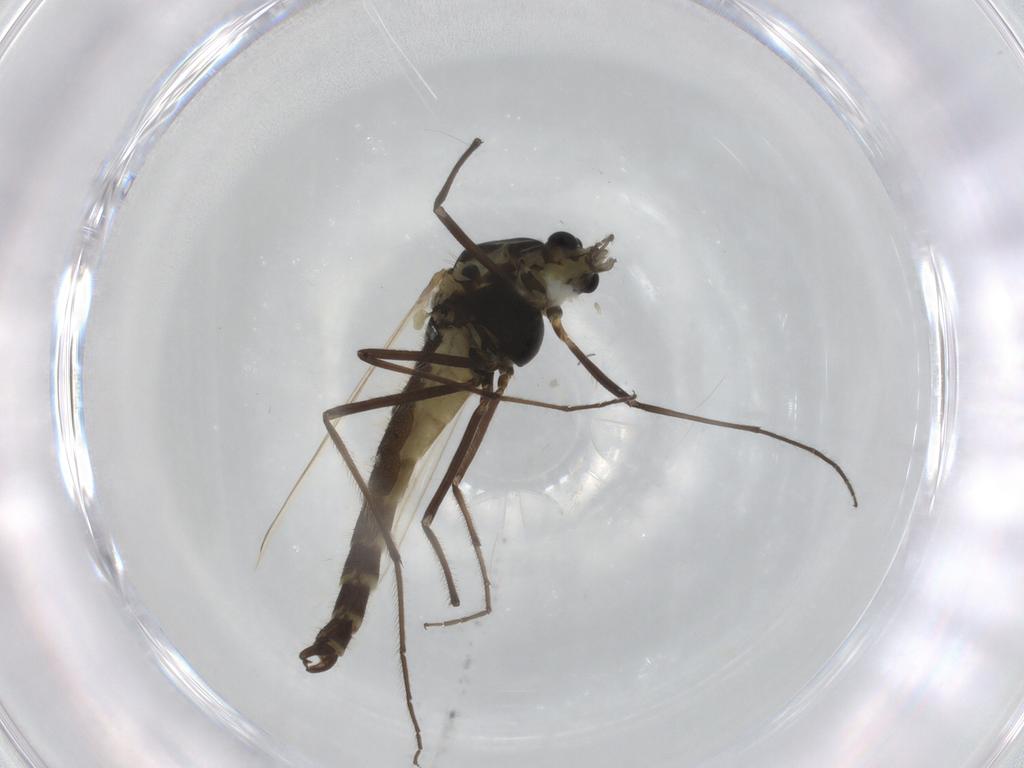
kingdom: Animalia
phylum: Arthropoda
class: Insecta
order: Diptera
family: Chironomidae
